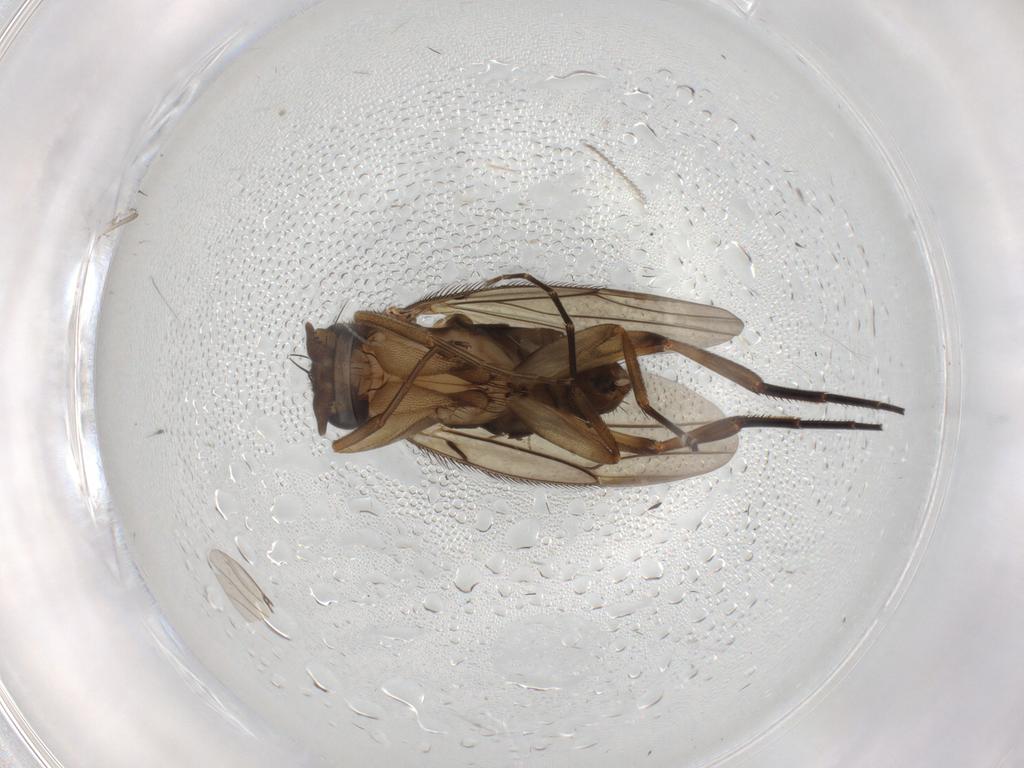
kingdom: Animalia
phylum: Arthropoda
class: Insecta
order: Diptera
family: Phoridae
